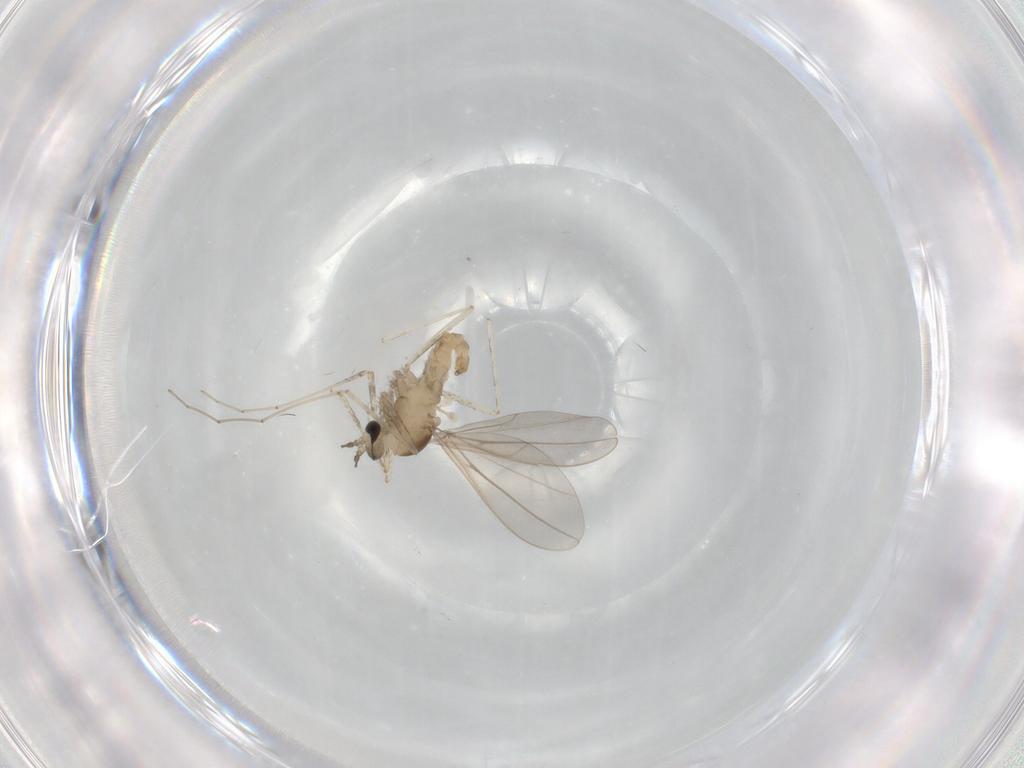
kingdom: Animalia
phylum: Arthropoda
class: Insecta
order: Diptera
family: Cecidomyiidae
